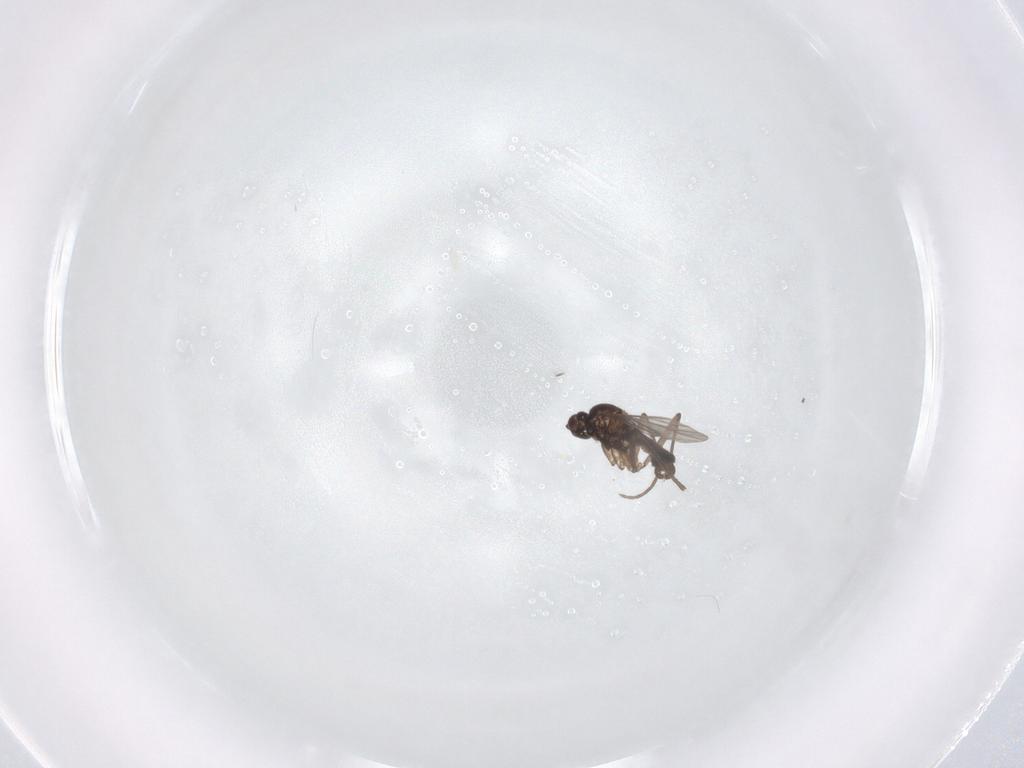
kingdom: Animalia
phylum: Arthropoda
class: Insecta
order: Diptera
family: Sciaridae
